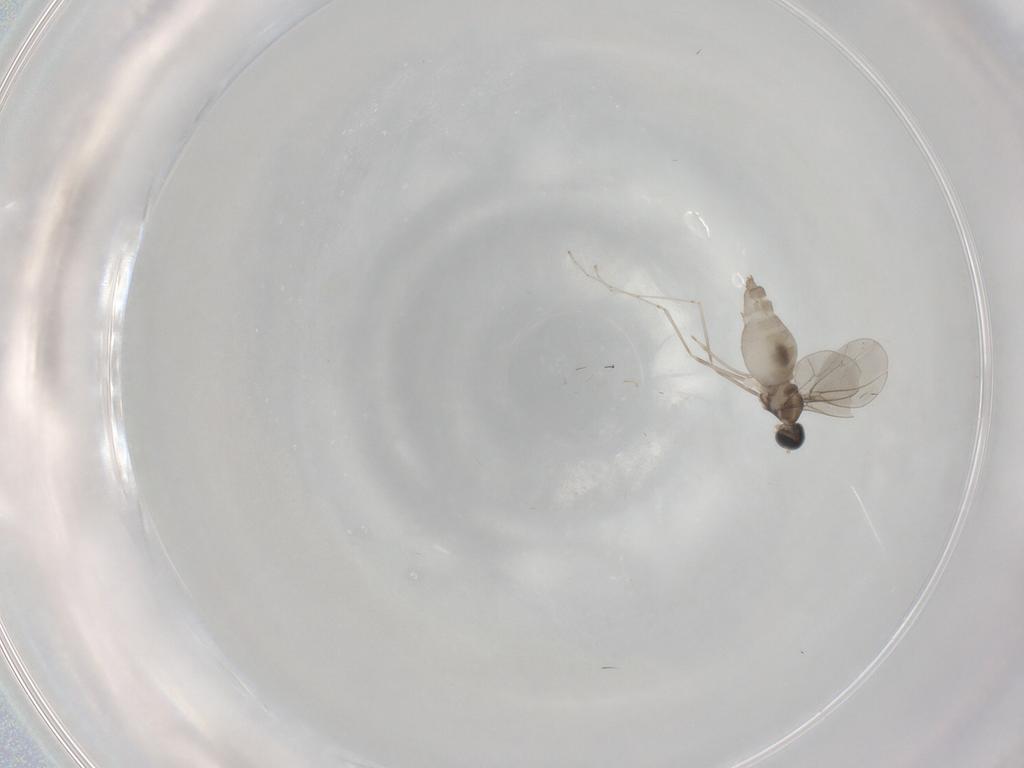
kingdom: Animalia
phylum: Arthropoda
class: Insecta
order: Diptera
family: Cecidomyiidae
